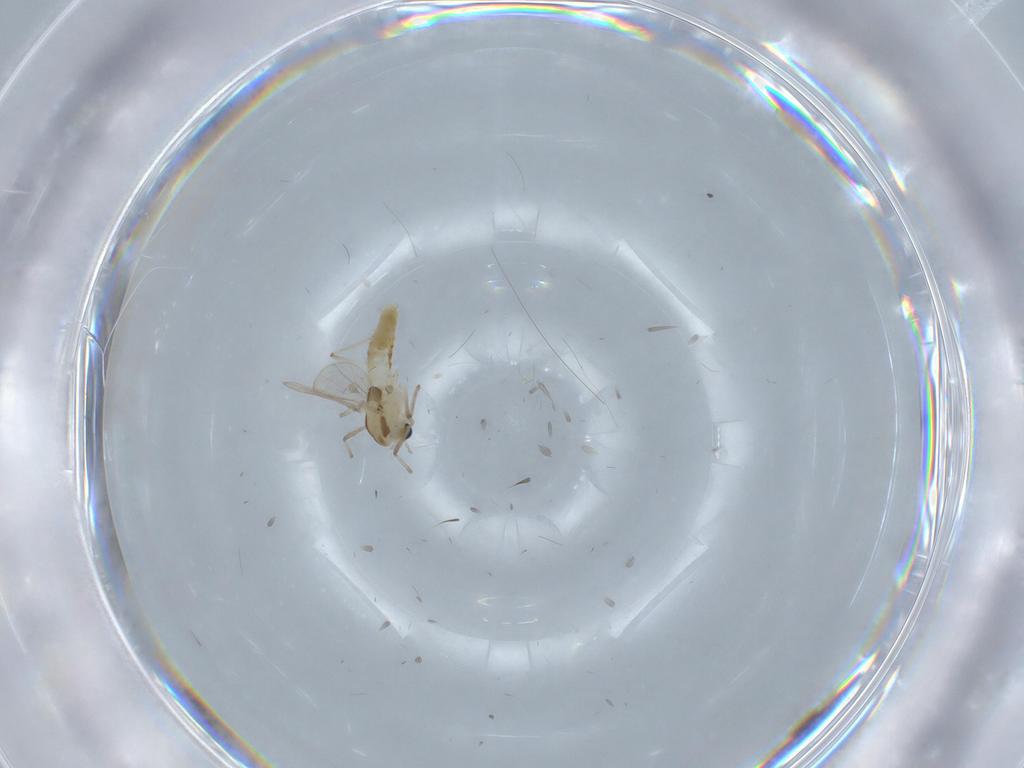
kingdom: Animalia
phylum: Arthropoda
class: Insecta
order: Diptera
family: Chironomidae
